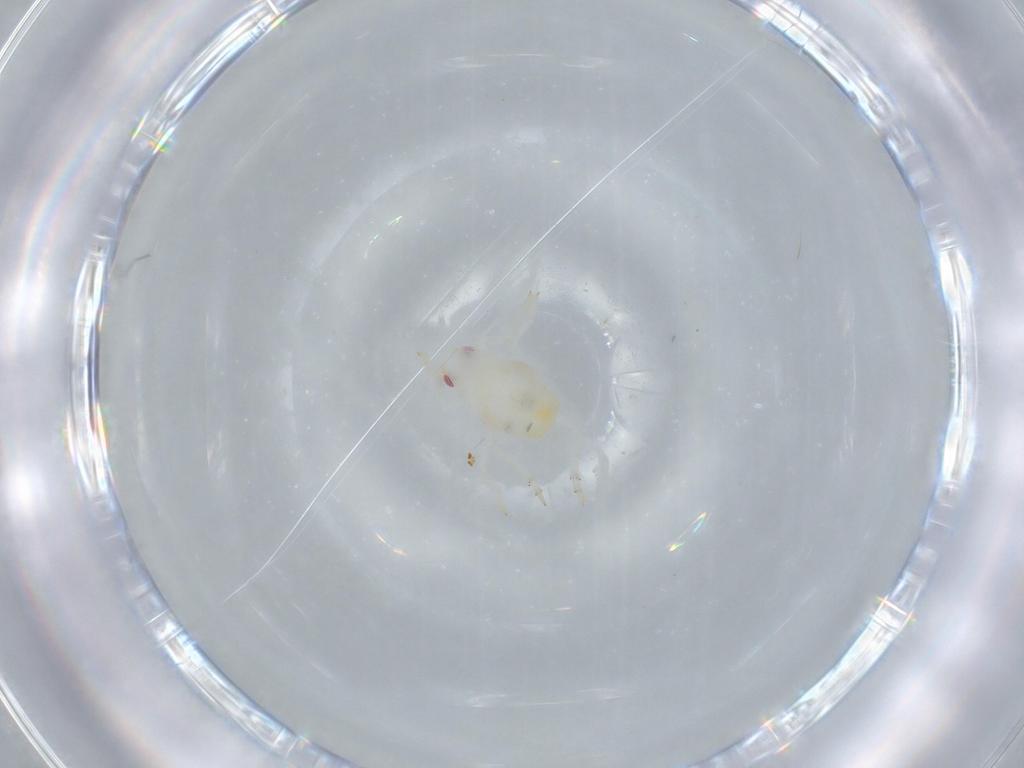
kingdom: Animalia
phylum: Arthropoda
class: Insecta
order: Hemiptera
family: Flatidae
